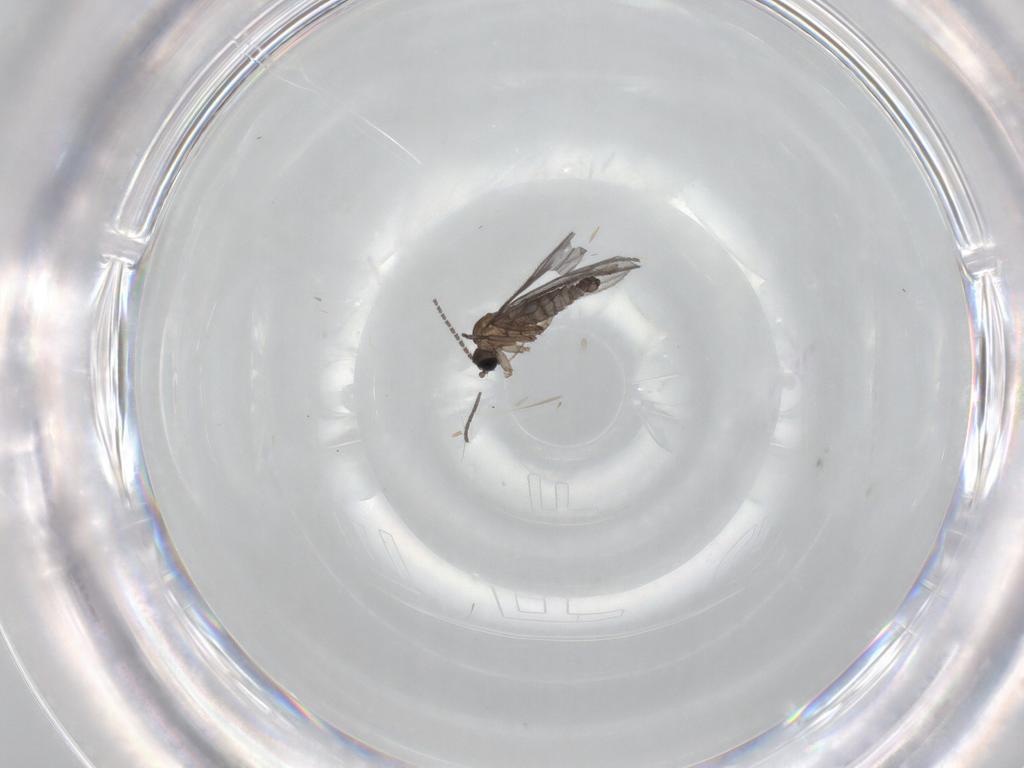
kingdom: Animalia
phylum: Arthropoda
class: Insecta
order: Diptera
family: Sciaridae
